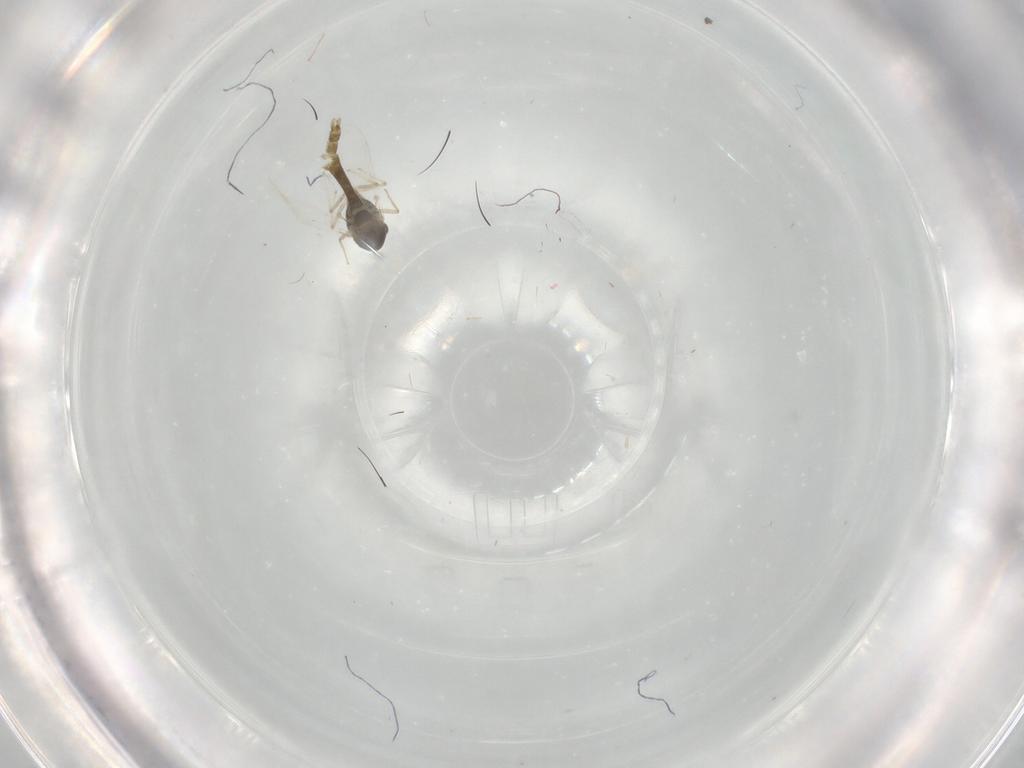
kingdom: Animalia
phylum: Arthropoda
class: Insecta
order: Diptera
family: Chironomidae
